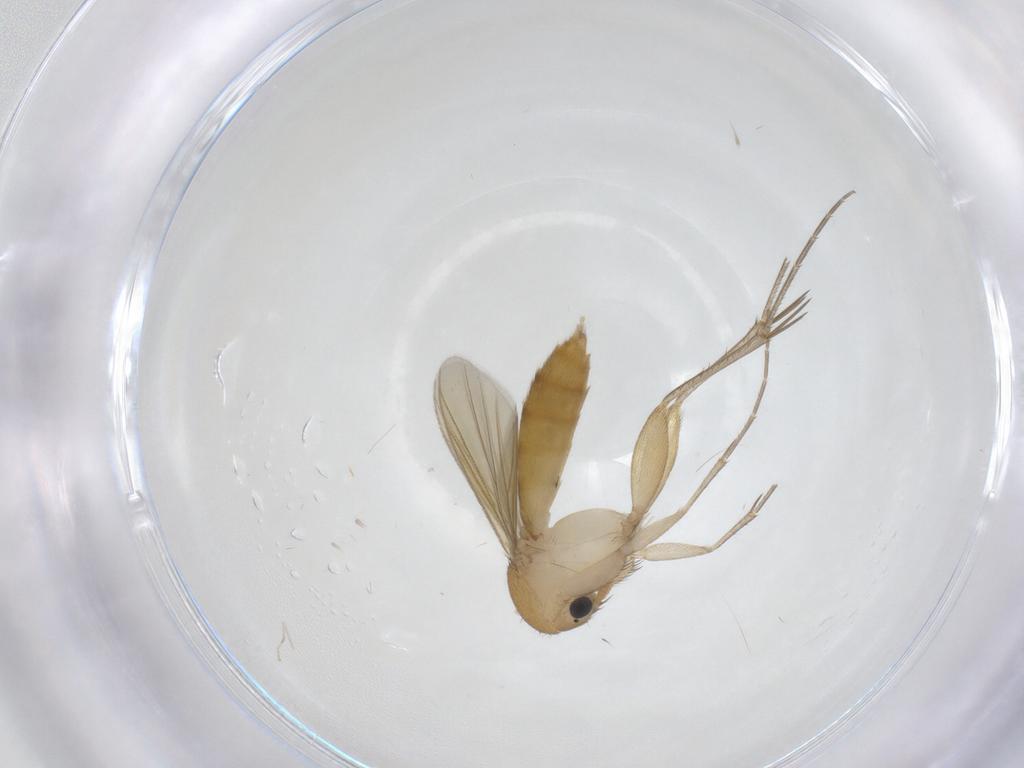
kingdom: Animalia
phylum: Arthropoda
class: Insecta
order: Diptera
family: Mycetophilidae
